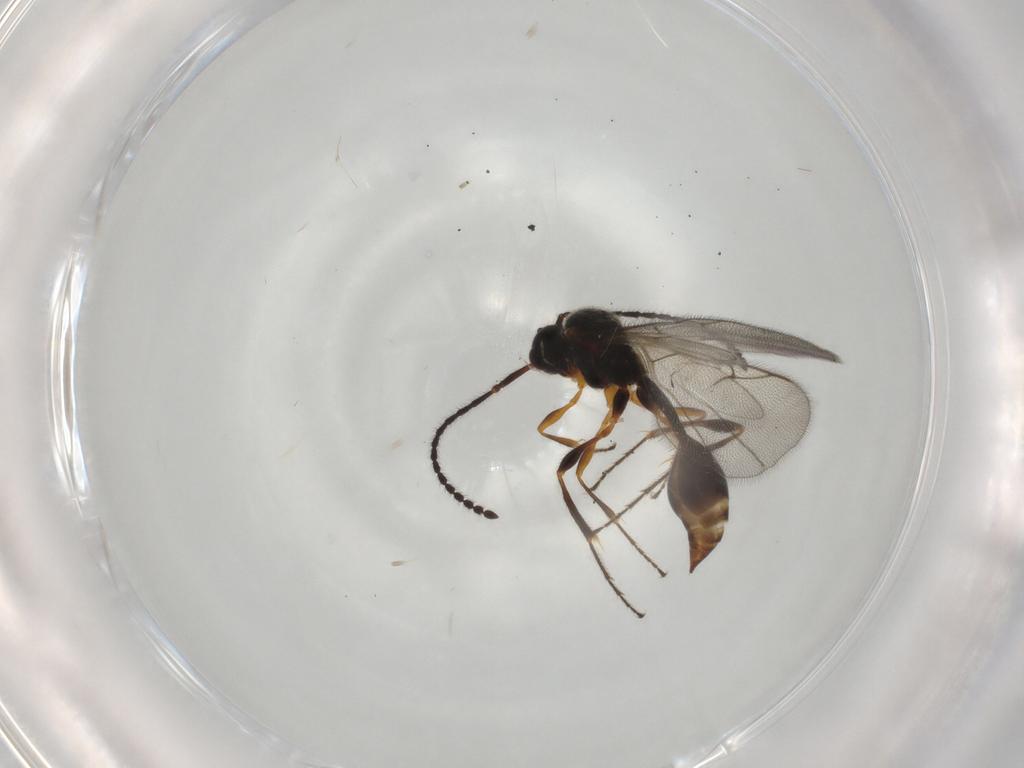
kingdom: Animalia
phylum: Arthropoda
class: Insecta
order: Hymenoptera
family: Diapriidae
